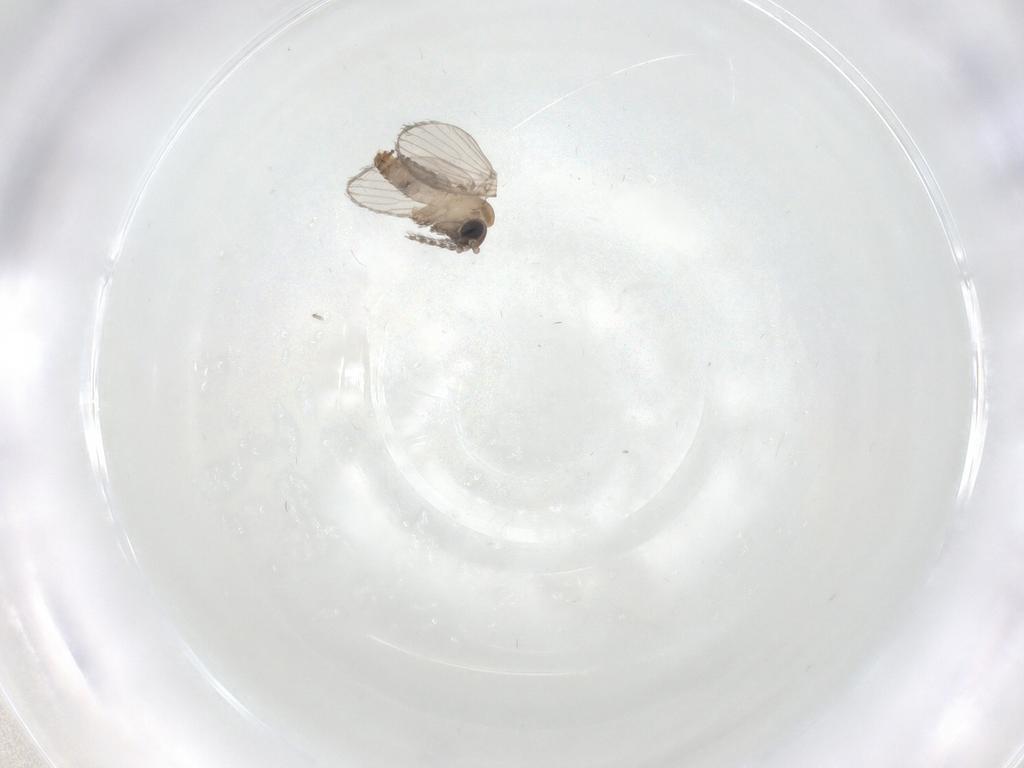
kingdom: Animalia
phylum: Arthropoda
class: Insecta
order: Diptera
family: Psychodidae
